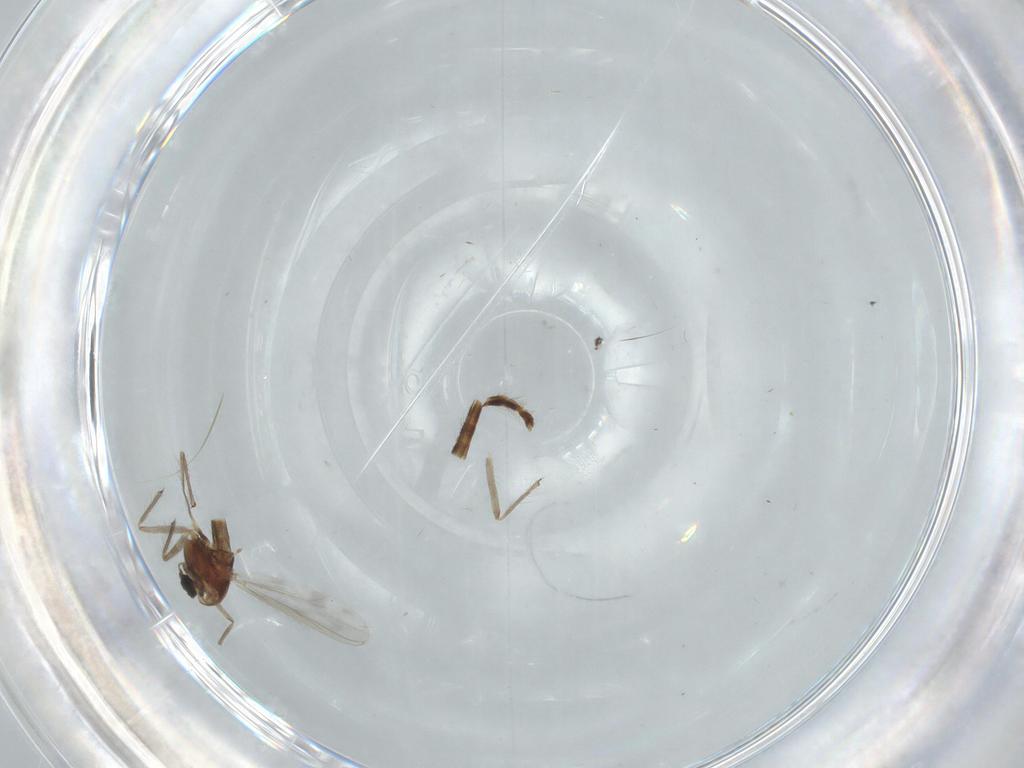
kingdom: Animalia
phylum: Arthropoda
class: Insecta
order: Diptera
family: Chironomidae
